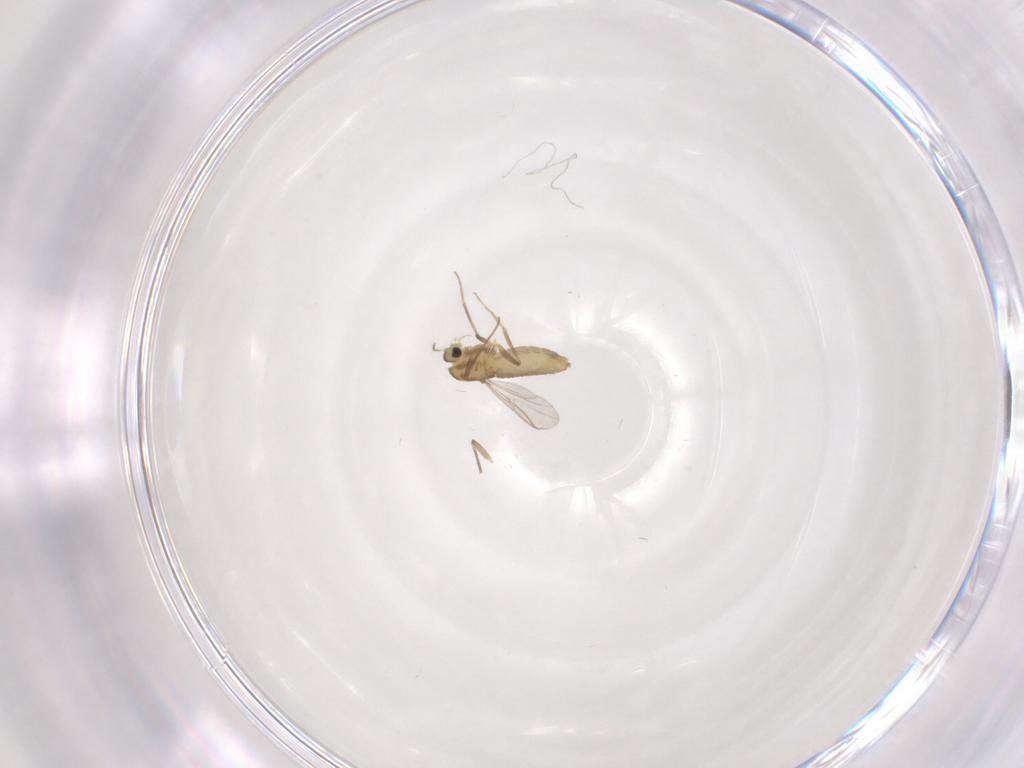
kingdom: Animalia
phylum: Arthropoda
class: Insecta
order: Diptera
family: Chironomidae
